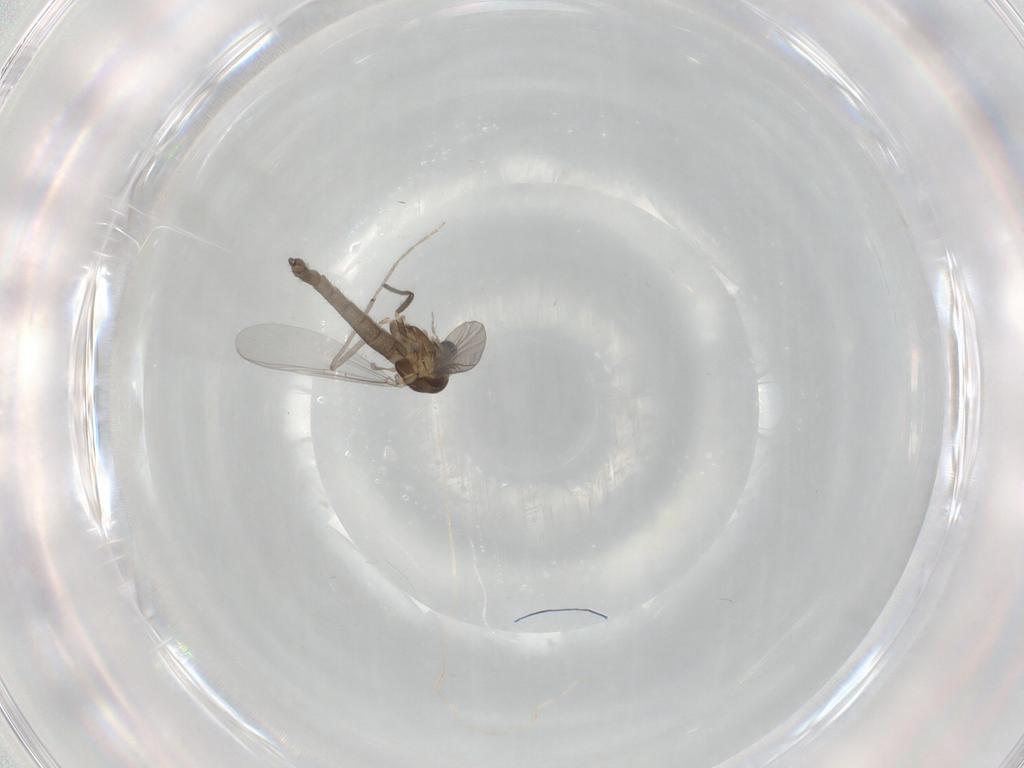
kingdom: Animalia
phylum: Arthropoda
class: Insecta
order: Diptera
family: Chironomidae
